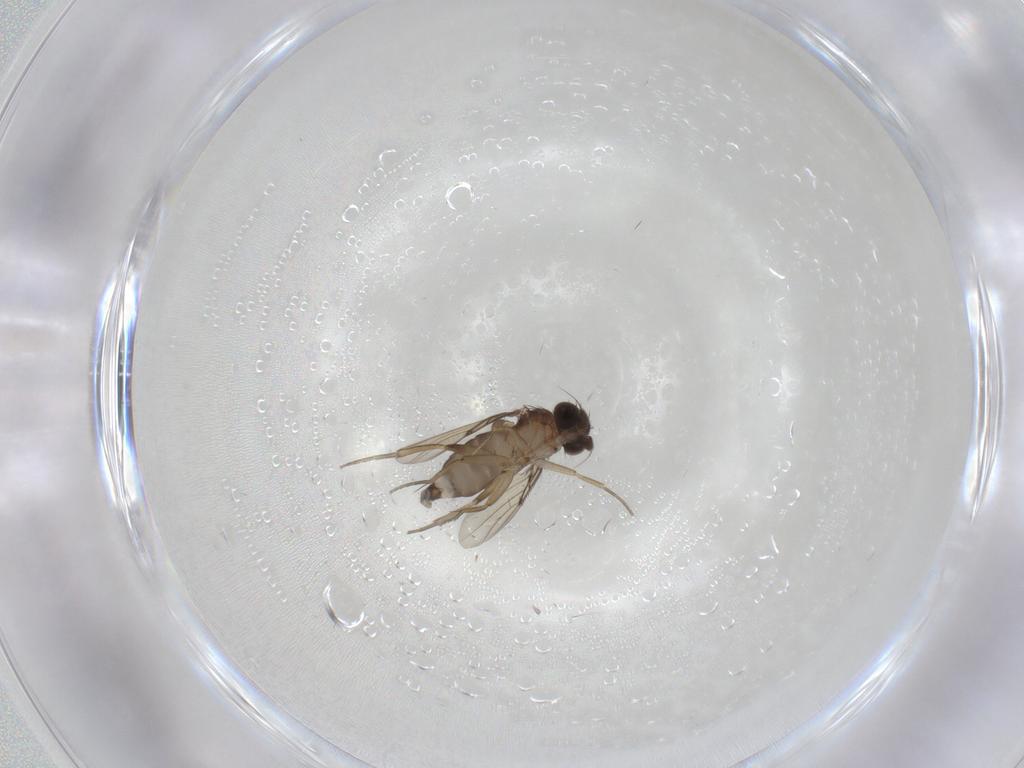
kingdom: Animalia
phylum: Arthropoda
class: Insecta
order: Diptera
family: Phoridae
